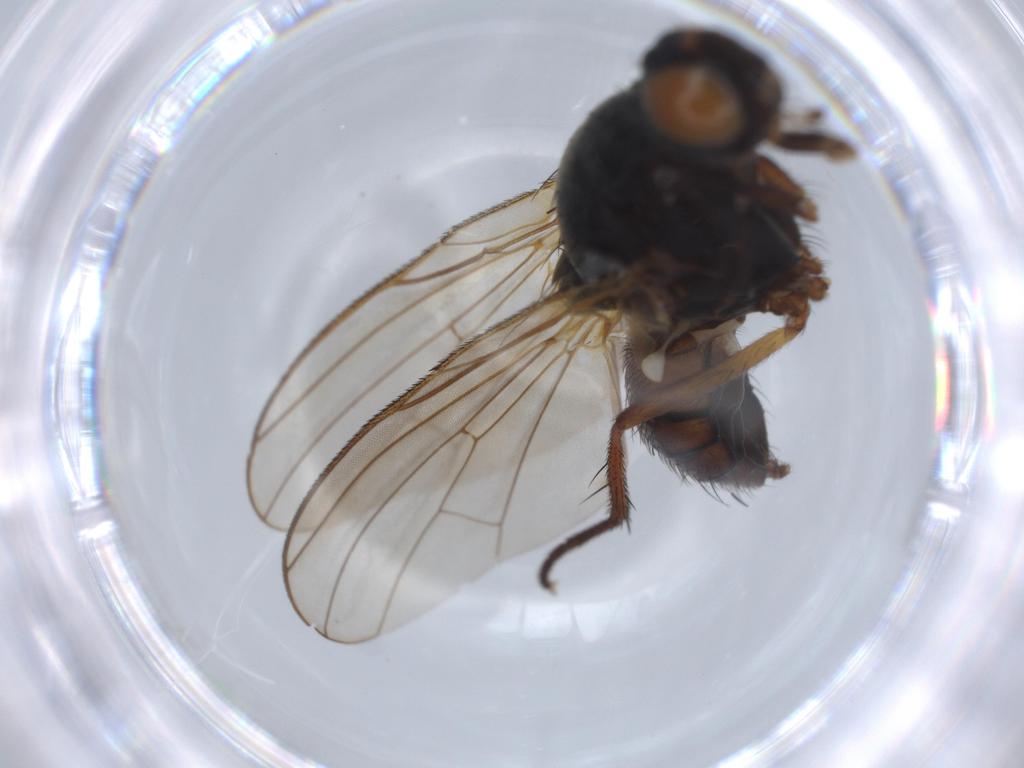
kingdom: Animalia
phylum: Arthropoda
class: Insecta
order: Diptera
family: Anthomyiidae
